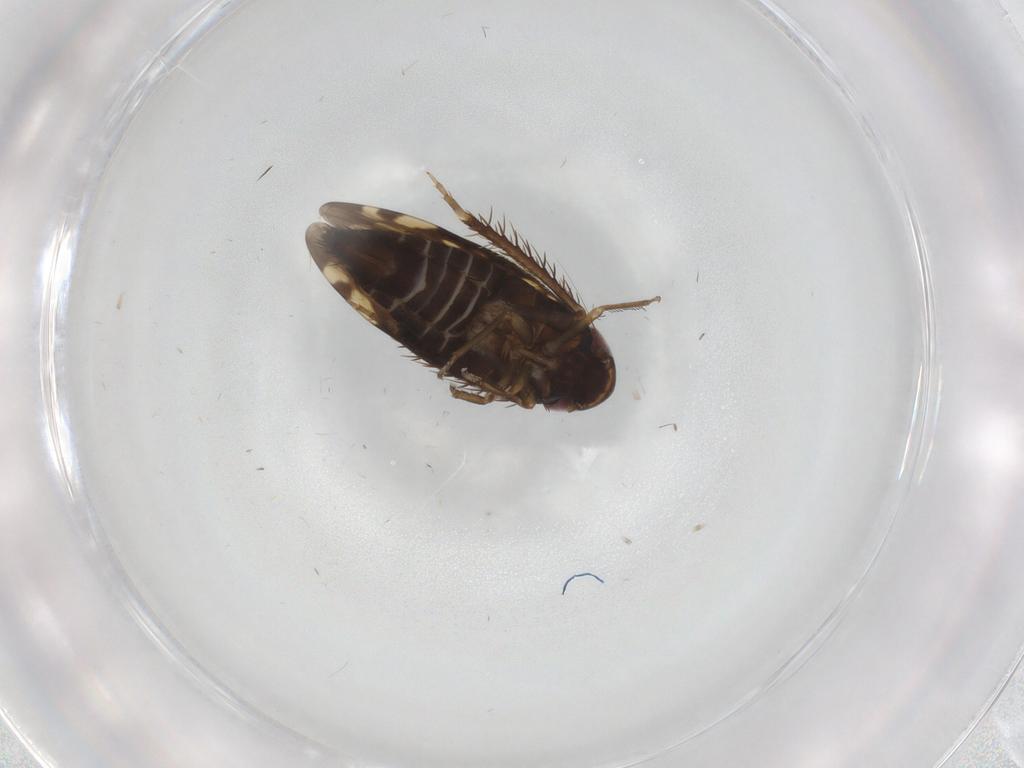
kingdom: Animalia
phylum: Arthropoda
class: Insecta
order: Hemiptera
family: Cicadellidae
